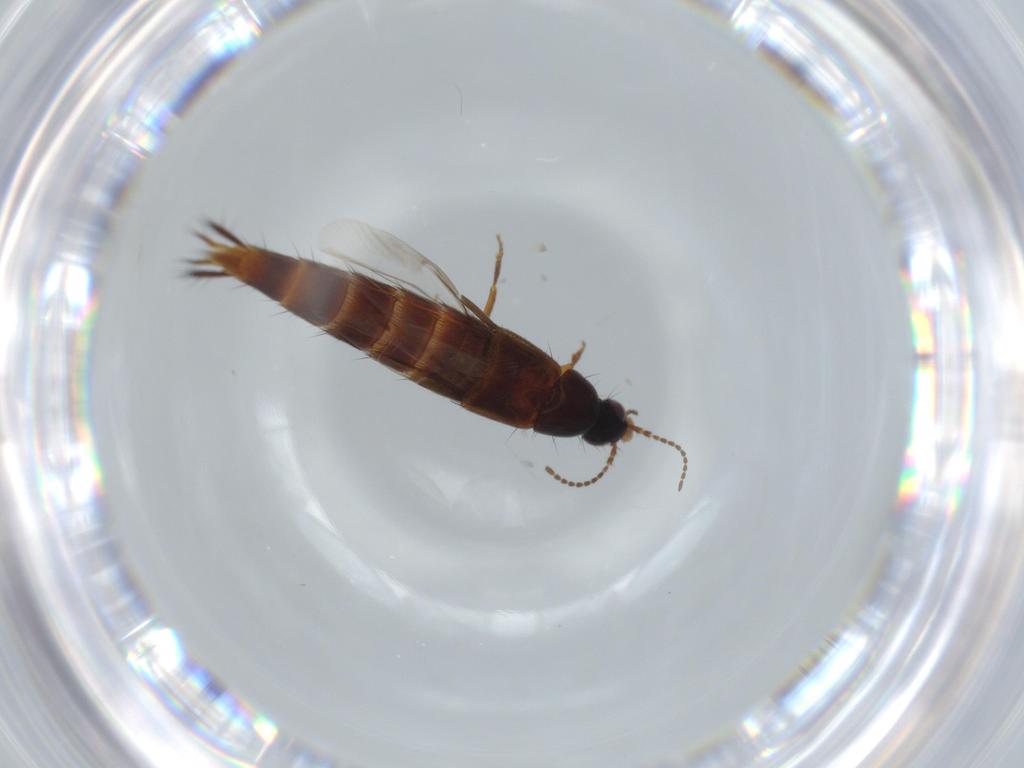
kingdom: Animalia
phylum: Arthropoda
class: Insecta
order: Coleoptera
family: Staphylinidae
